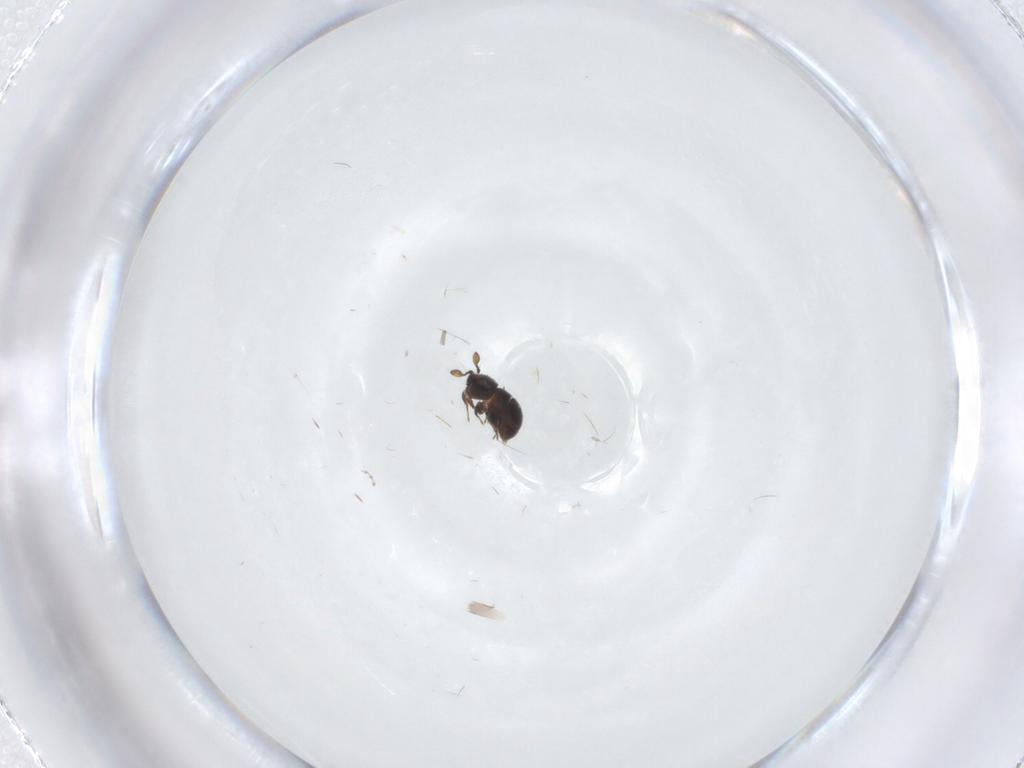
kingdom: Animalia
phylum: Arthropoda
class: Insecta
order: Hymenoptera
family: Scelionidae
